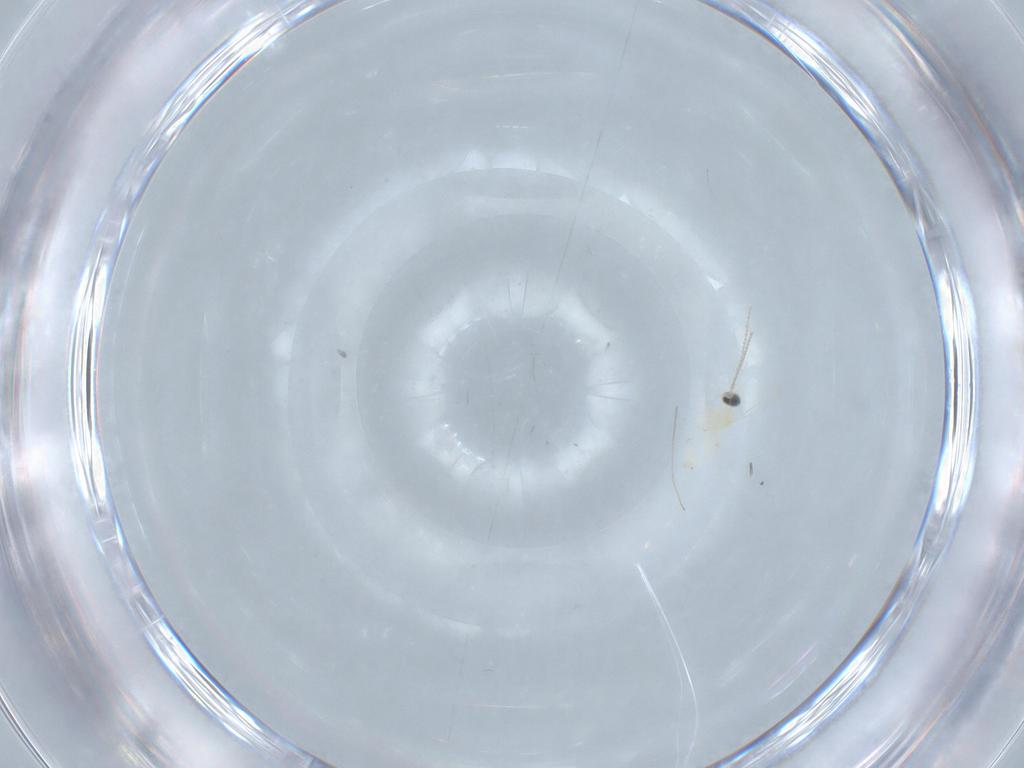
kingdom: Animalia
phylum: Arthropoda
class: Insecta
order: Diptera
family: Cecidomyiidae
